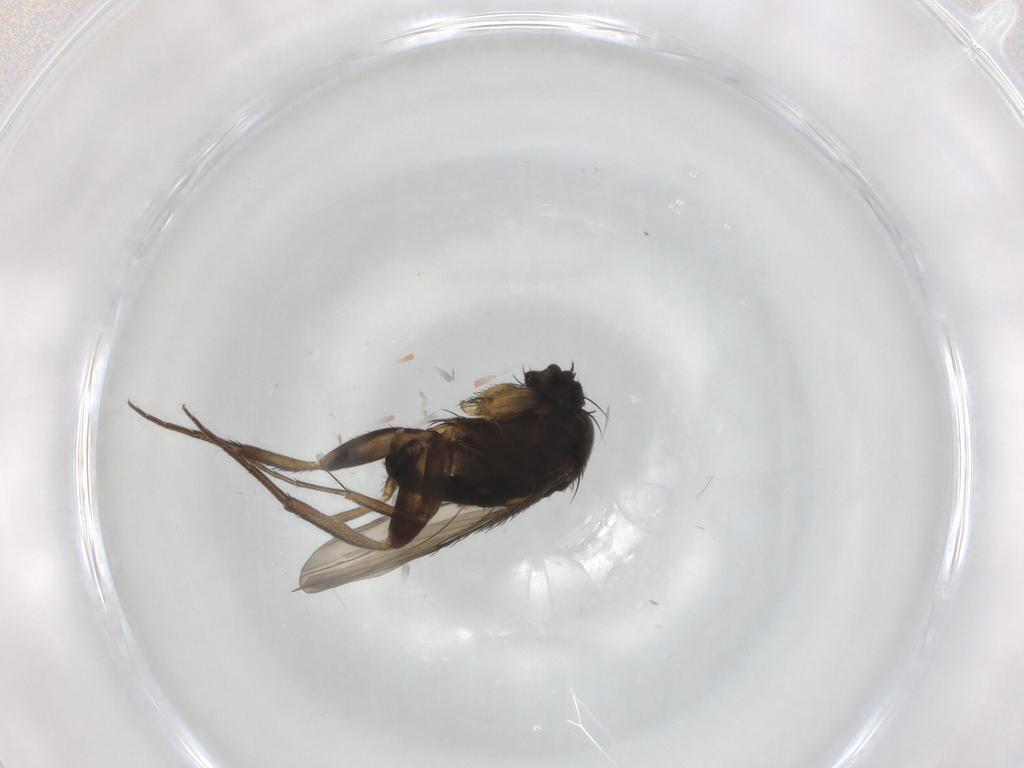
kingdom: Animalia
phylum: Arthropoda
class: Insecta
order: Diptera
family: Phoridae
